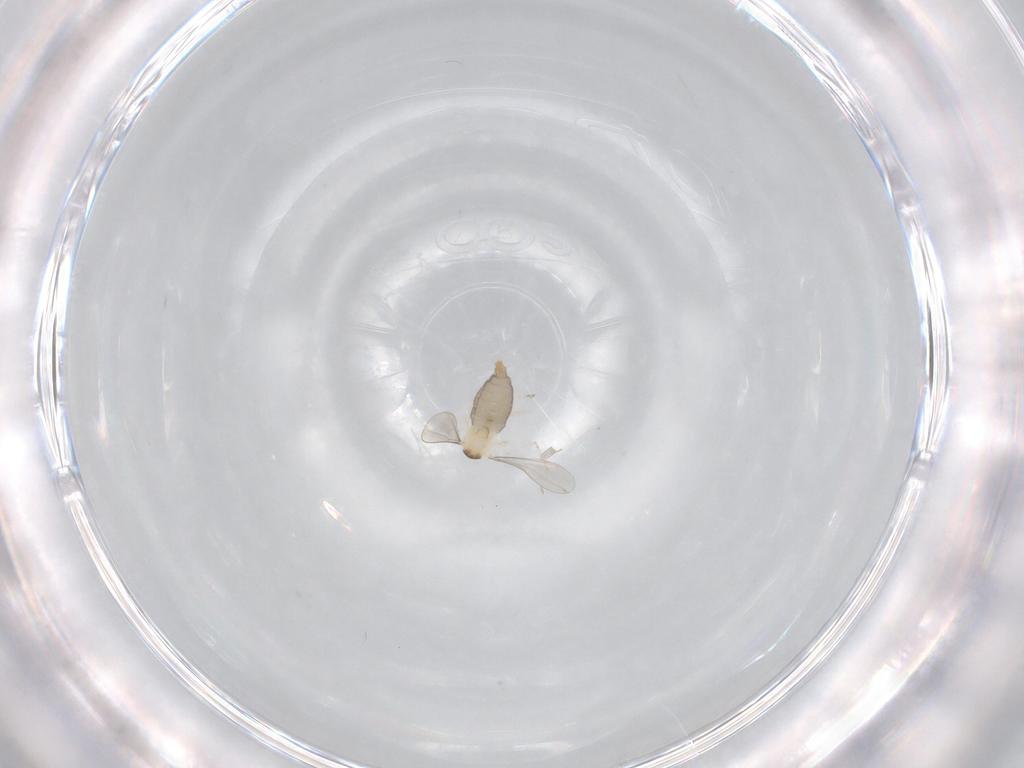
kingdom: Animalia
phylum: Arthropoda
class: Insecta
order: Diptera
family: Cecidomyiidae
